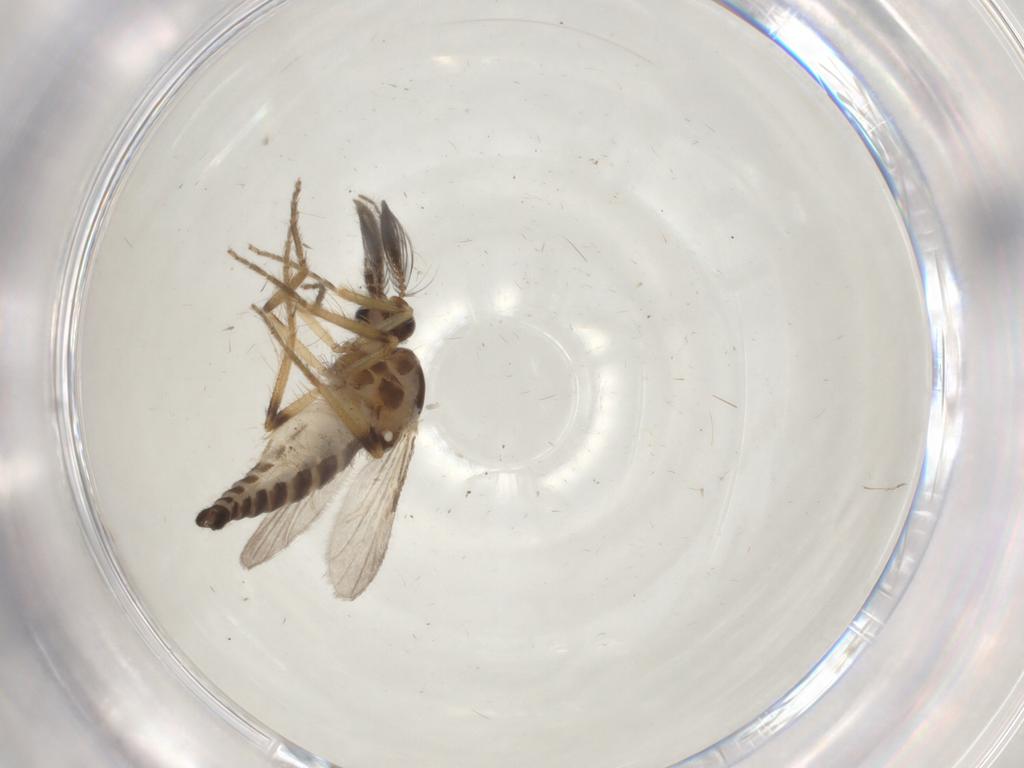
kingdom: Animalia
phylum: Arthropoda
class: Insecta
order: Diptera
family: Ceratopogonidae
